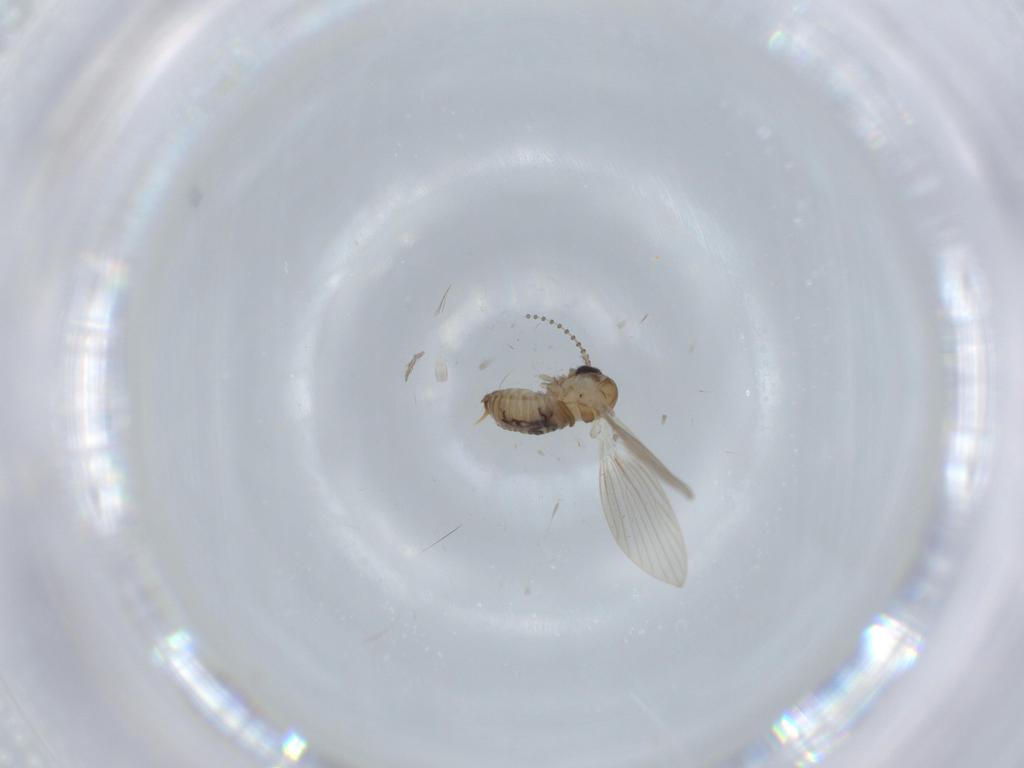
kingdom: Animalia
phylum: Arthropoda
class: Insecta
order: Diptera
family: Psychodidae
